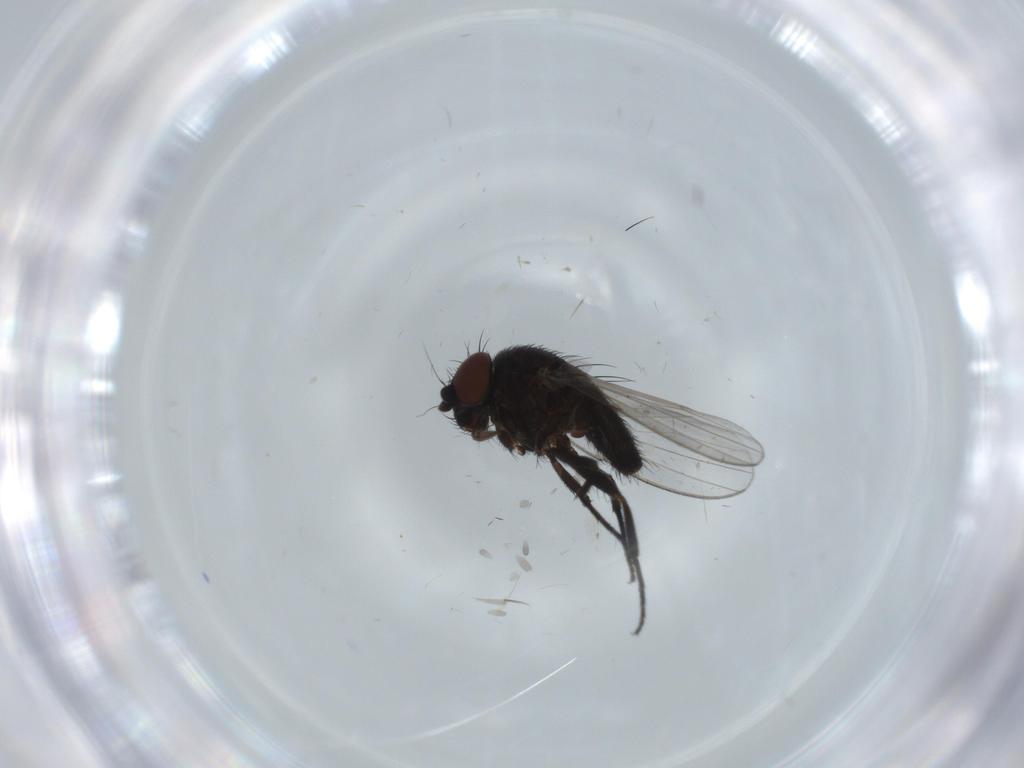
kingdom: Animalia
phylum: Arthropoda
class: Insecta
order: Diptera
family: Milichiidae
